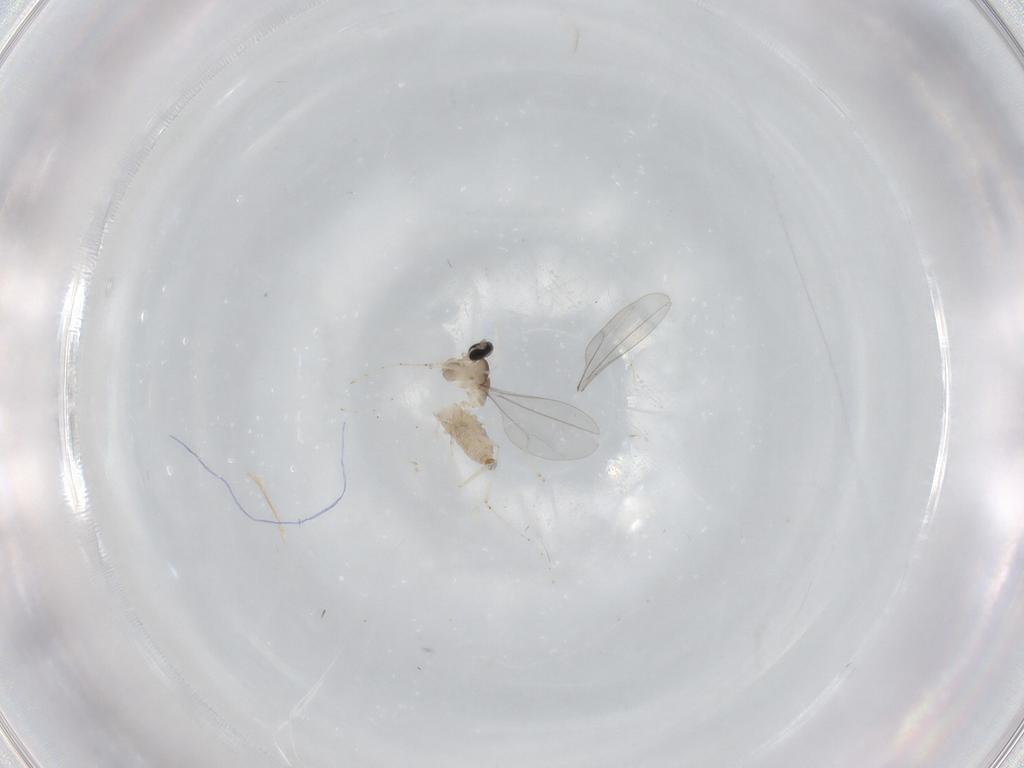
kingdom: Animalia
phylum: Arthropoda
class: Insecta
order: Diptera
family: Cecidomyiidae
